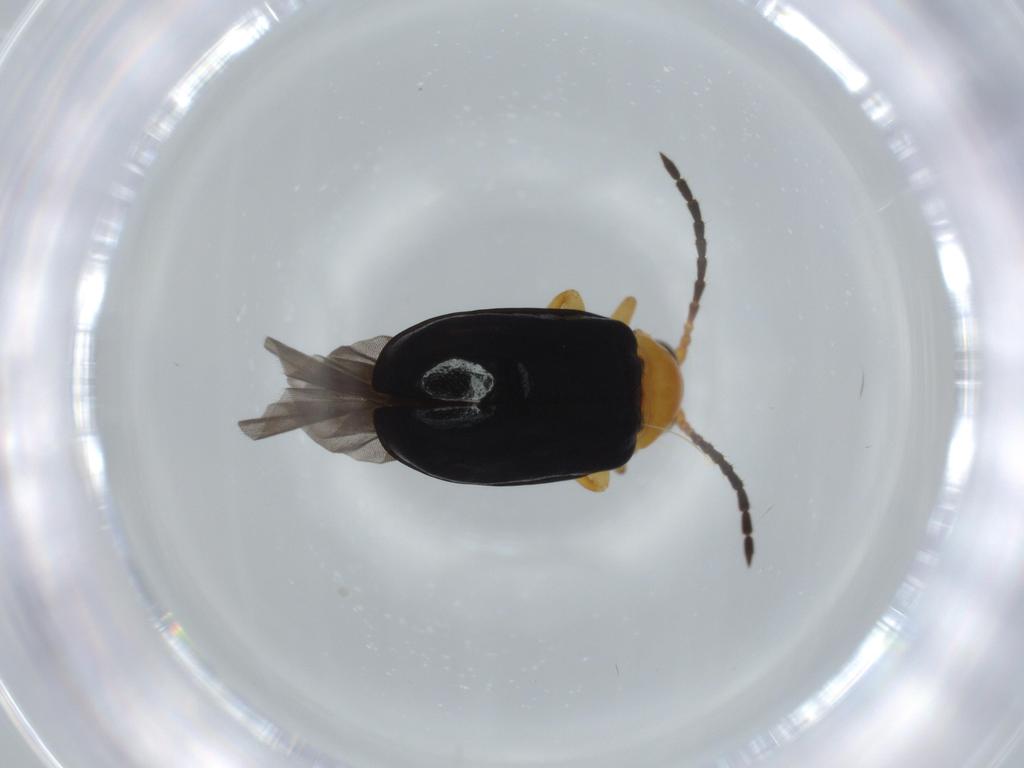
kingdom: Animalia
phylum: Arthropoda
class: Insecta
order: Coleoptera
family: Chrysomelidae
